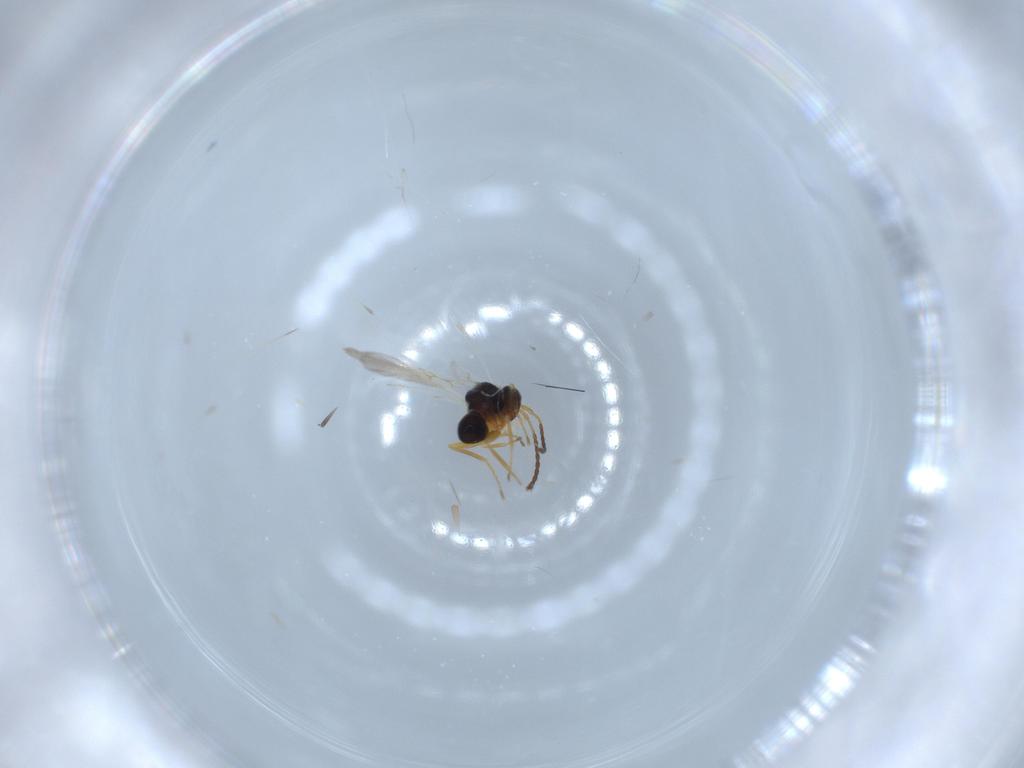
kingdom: Animalia
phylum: Arthropoda
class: Insecta
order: Hymenoptera
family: Figitidae
